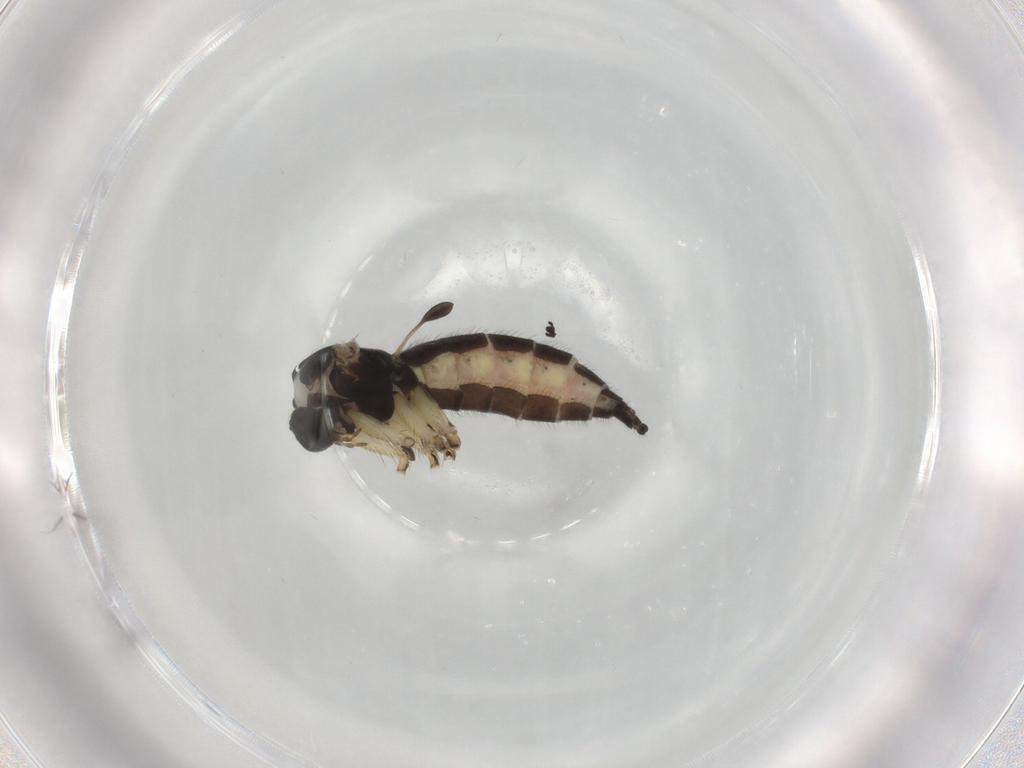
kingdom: Animalia
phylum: Arthropoda
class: Insecta
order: Diptera
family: Sciaridae
